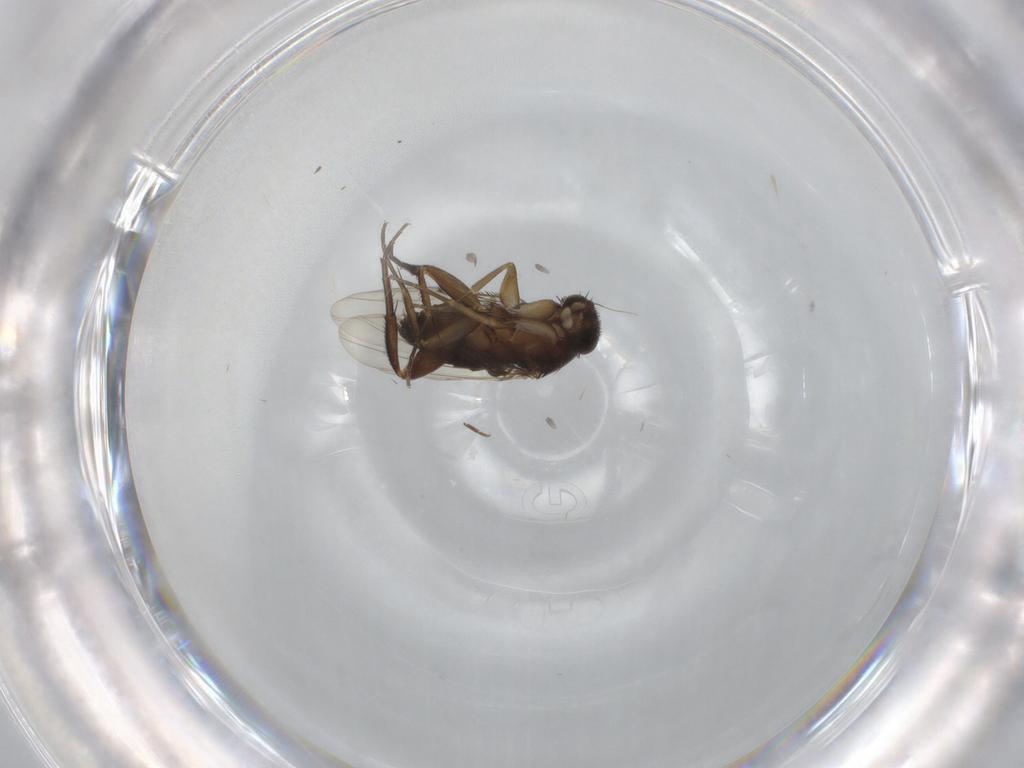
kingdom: Animalia
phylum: Arthropoda
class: Insecta
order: Diptera
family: Phoridae
